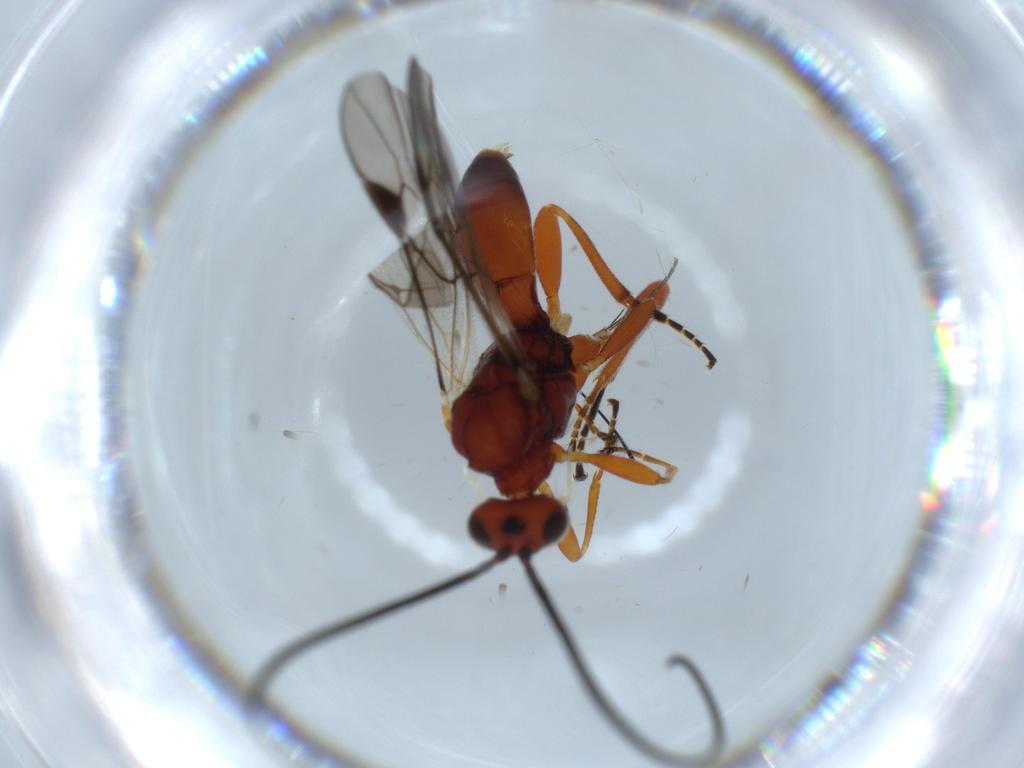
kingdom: Animalia
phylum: Arthropoda
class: Insecta
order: Hymenoptera
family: Braconidae
